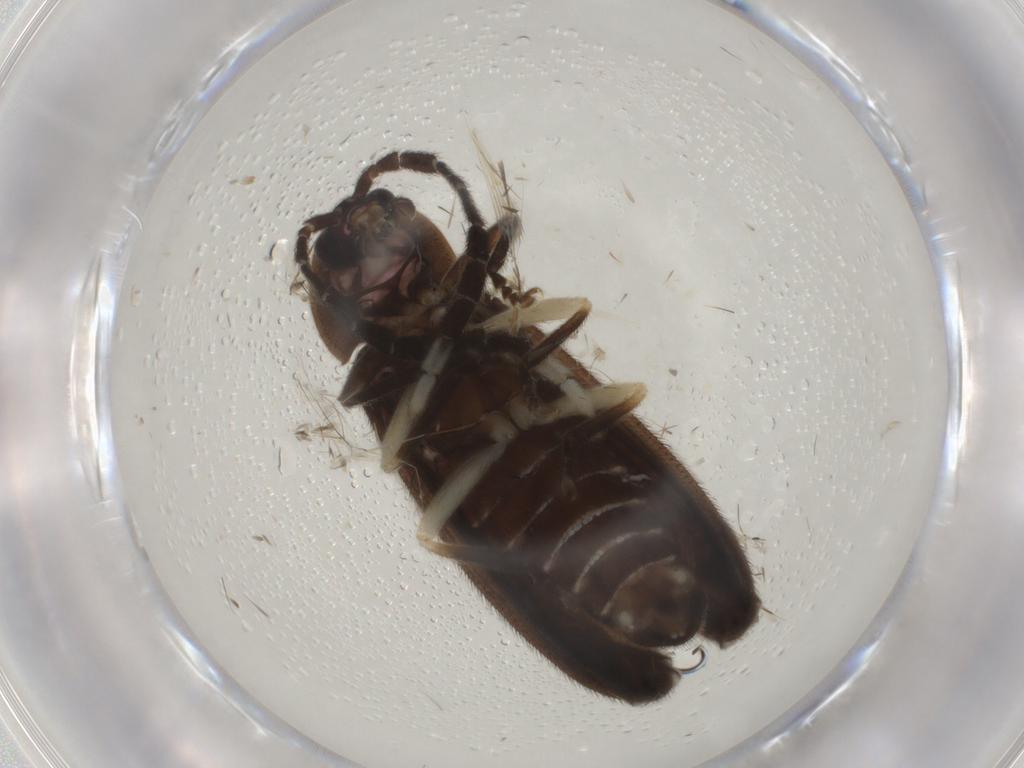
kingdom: Animalia
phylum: Arthropoda
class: Insecta
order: Coleoptera
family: Lampyridae
